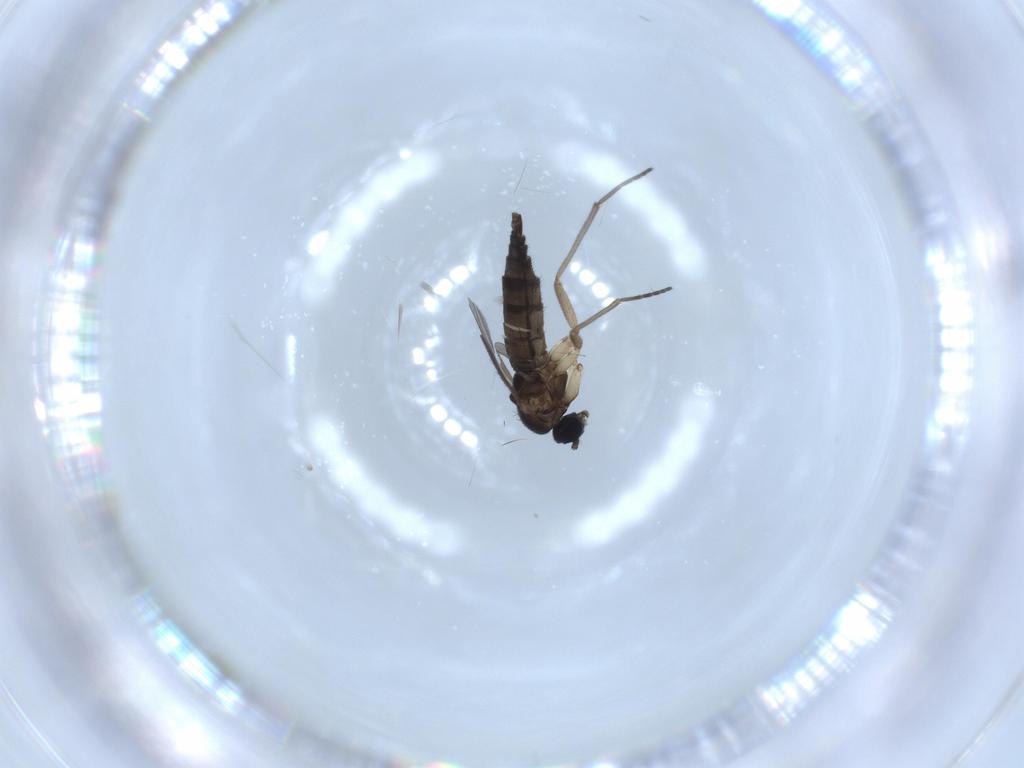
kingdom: Animalia
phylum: Arthropoda
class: Insecta
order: Diptera
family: Sciaridae
